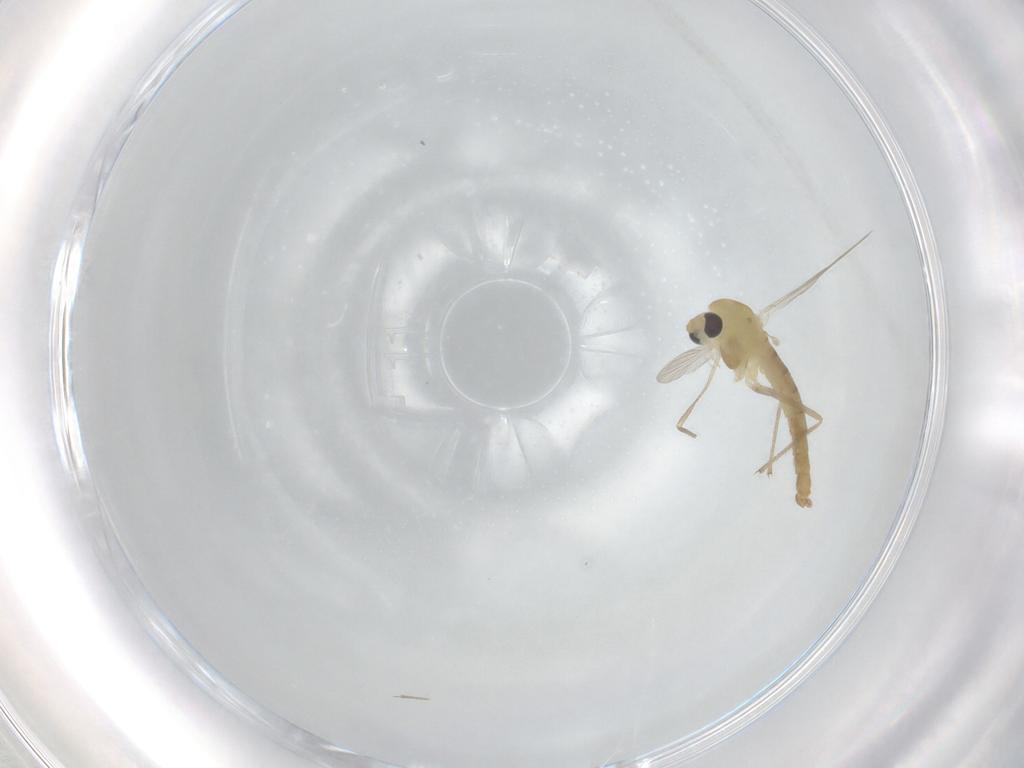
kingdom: Animalia
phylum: Arthropoda
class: Insecta
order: Diptera
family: Chironomidae
